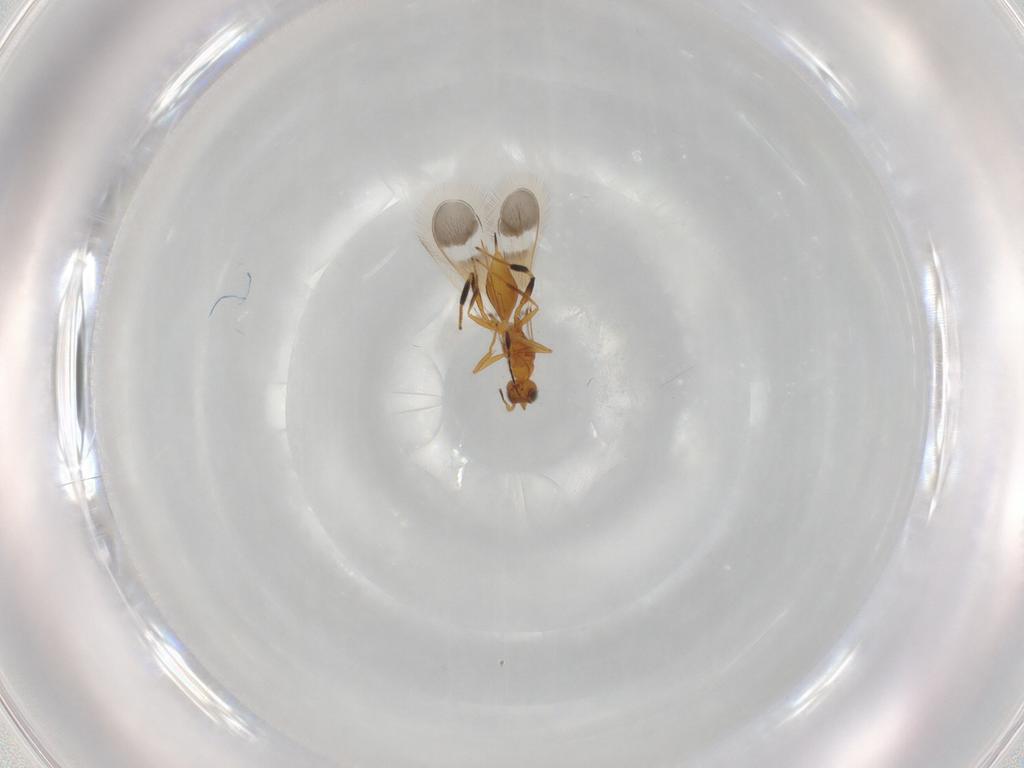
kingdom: Animalia
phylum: Arthropoda
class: Insecta
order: Hymenoptera
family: Mymaridae
